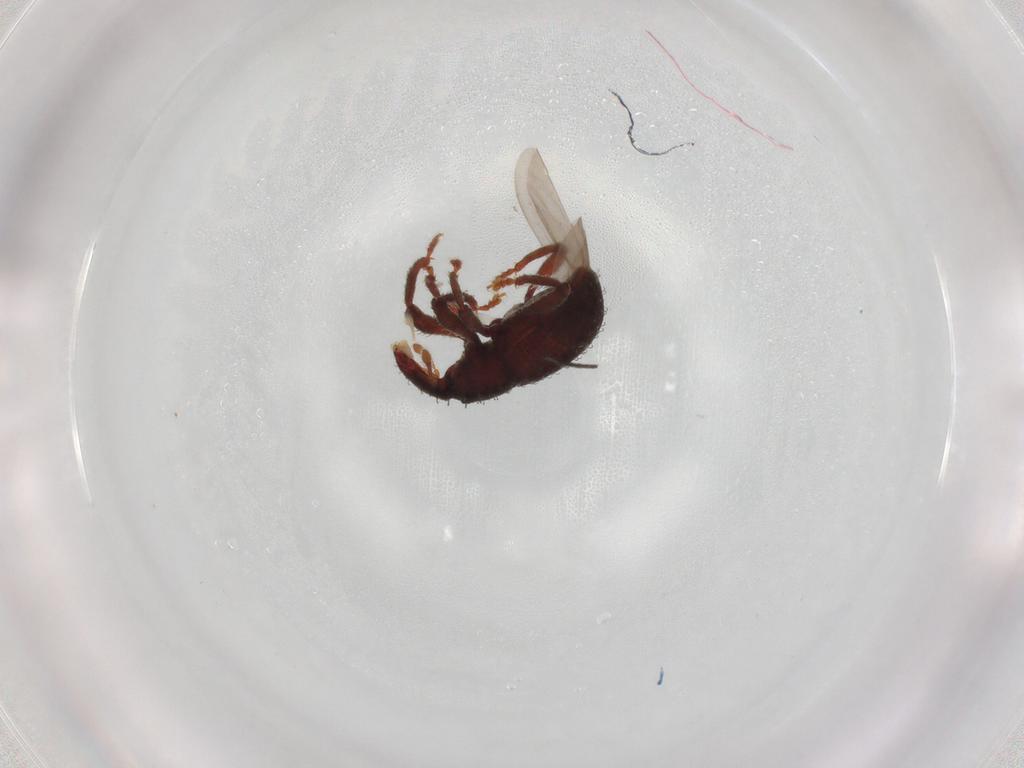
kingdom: Animalia
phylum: Arthropoda
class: Insecta
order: Coleoptera
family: Curculionidae
